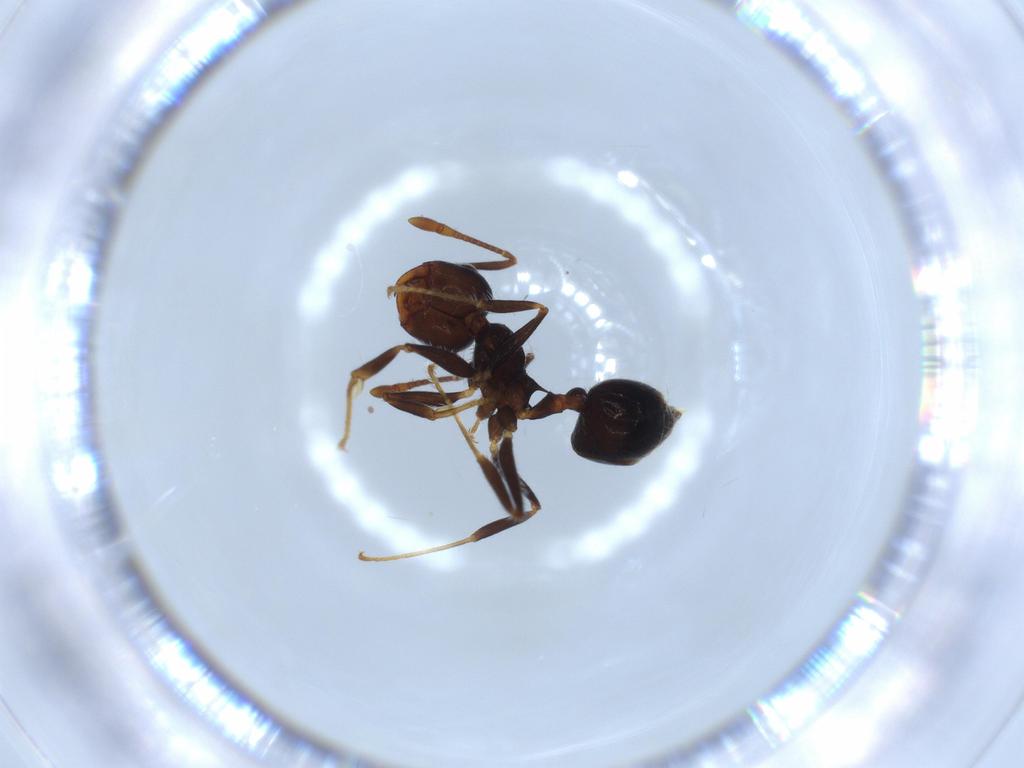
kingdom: Animalia
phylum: Arthropoda
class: Insecta
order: Hymenoptera
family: Formicidae
